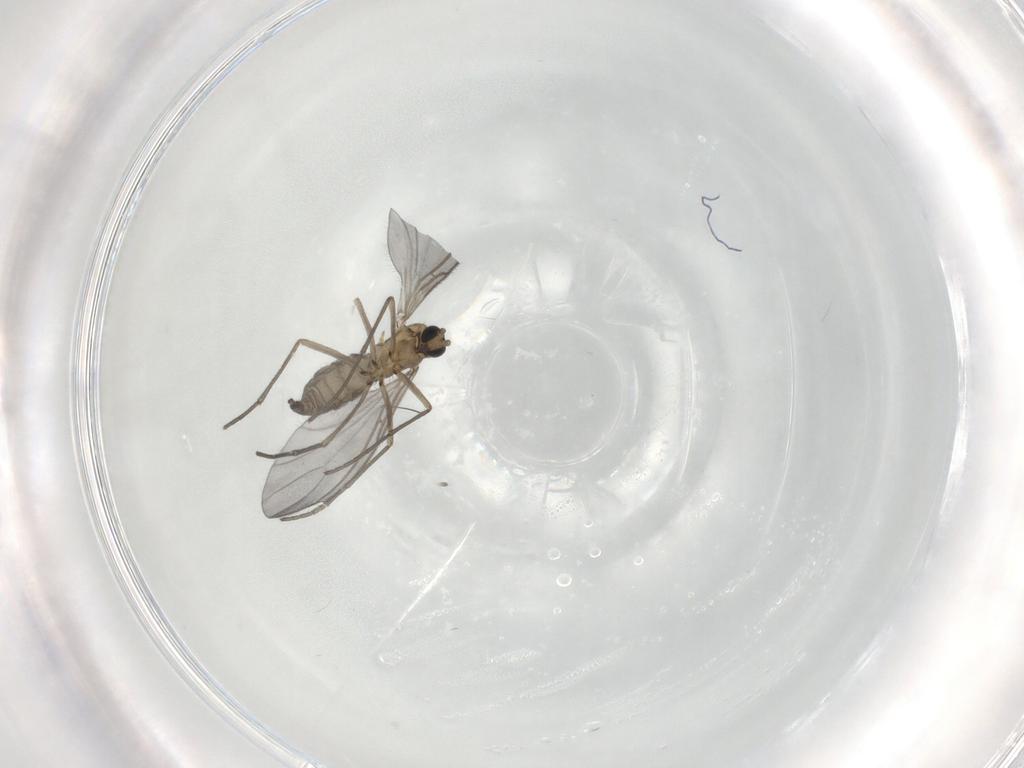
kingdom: Animalia
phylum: Arthropoda
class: Insecta
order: Diptera
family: Sciaridae
